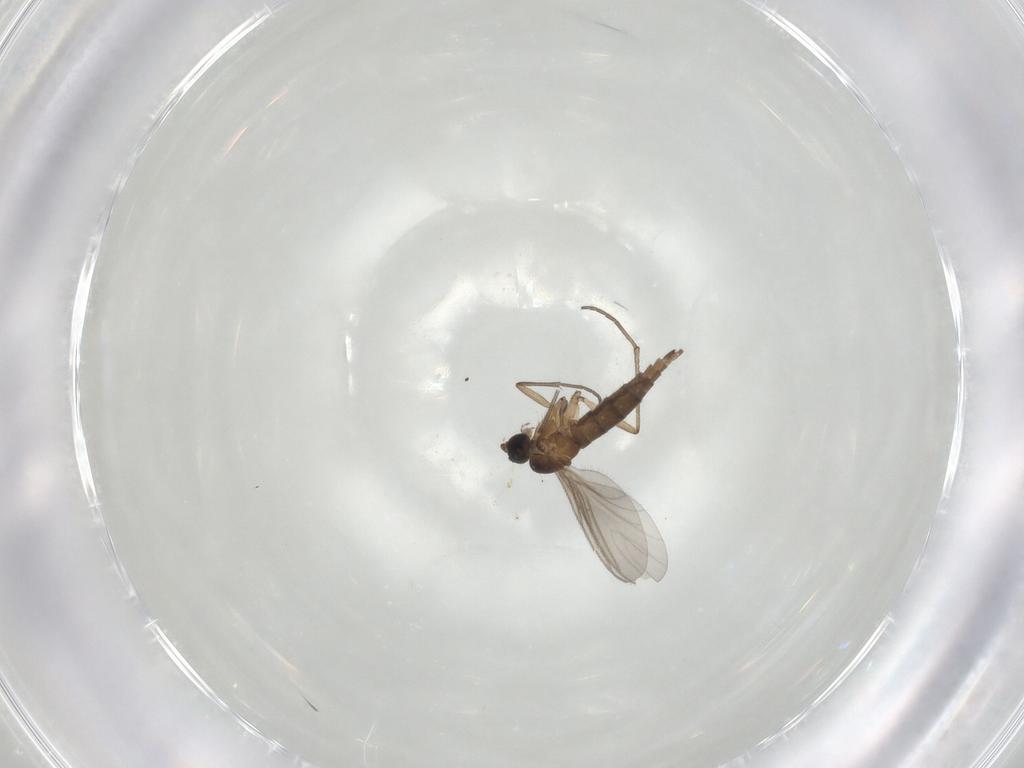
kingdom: Animalia
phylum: Arthropoda
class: Insecta
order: Diptera
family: Cecidomyiidae
